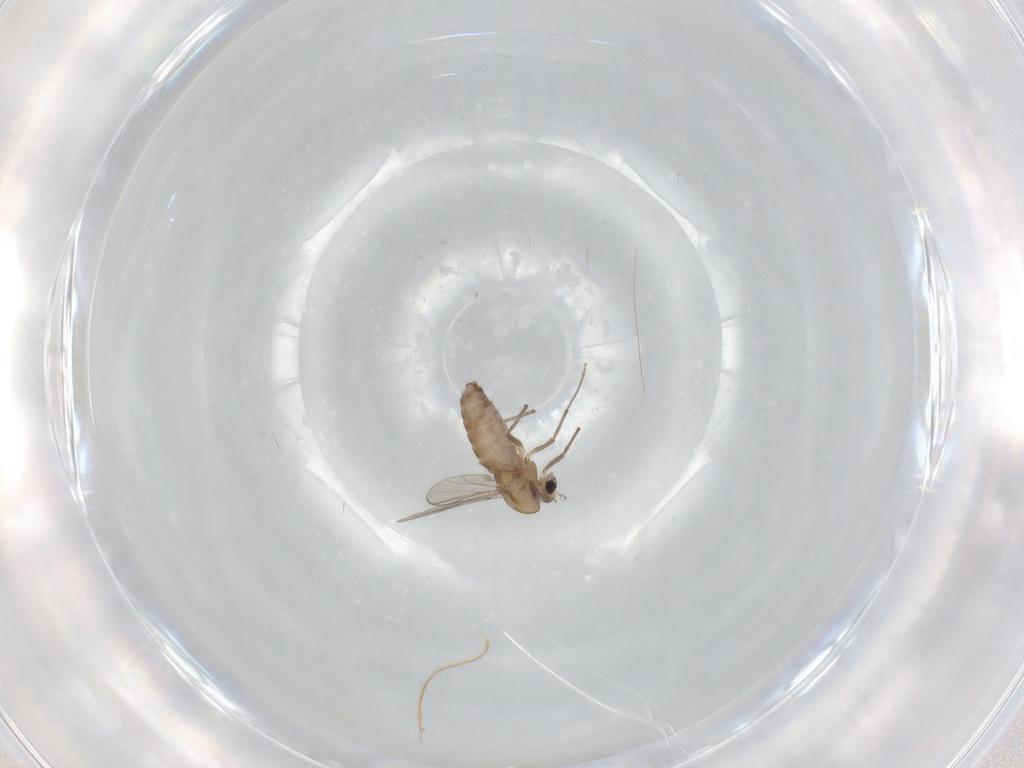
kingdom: Animalia
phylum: Arthropoda
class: Insecta
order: Diptera
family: Chironomidae
